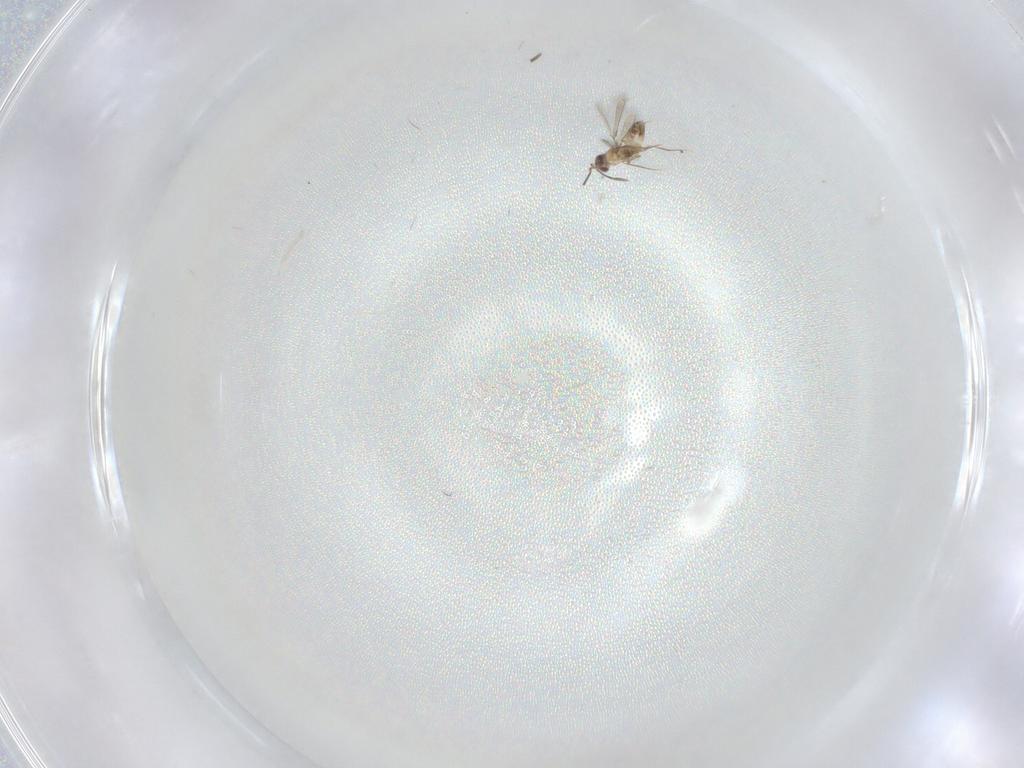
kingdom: Animalia
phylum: Arthropoda
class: Insecta
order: Hymenoptera
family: Mymaridae
